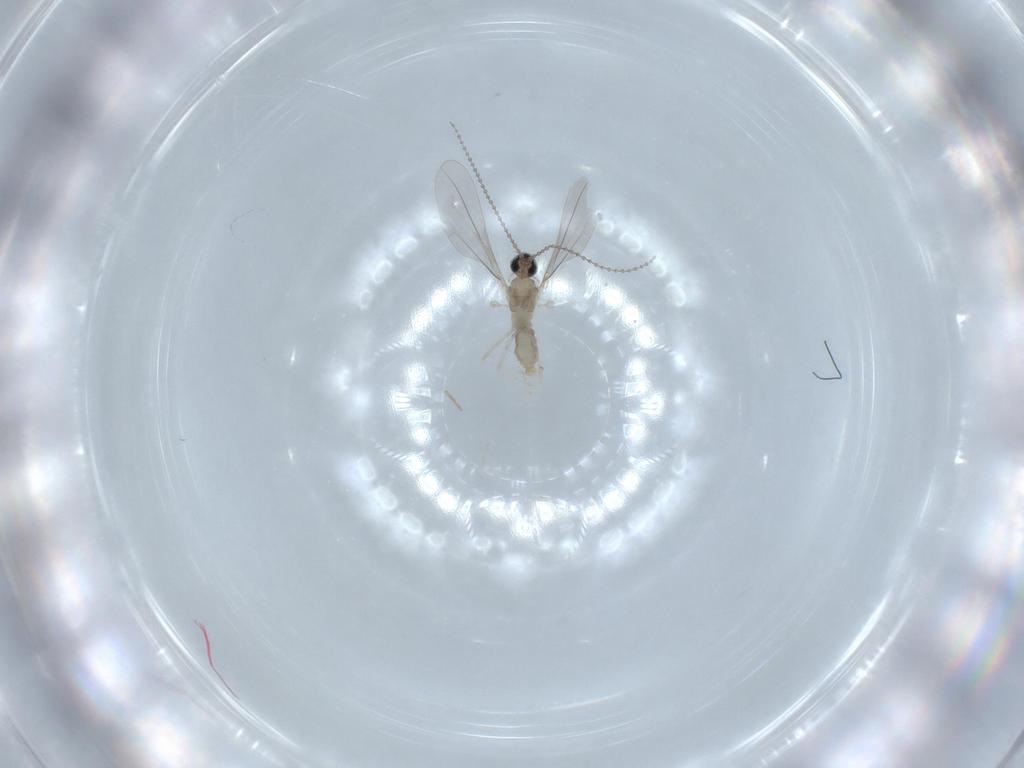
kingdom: Animalia
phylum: Arthropoda
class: Insecta
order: Diptera
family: Cecidomyiidae
